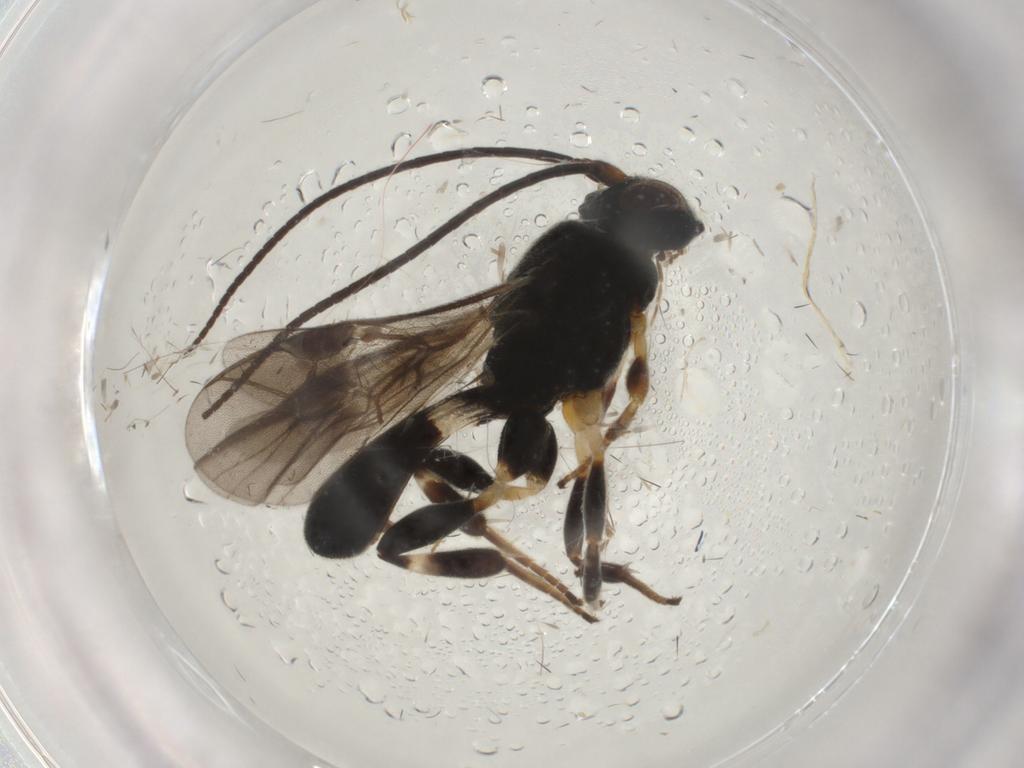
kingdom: Animalia
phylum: Arthropoda
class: Insecta
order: Hymenoptera
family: Braconidae
